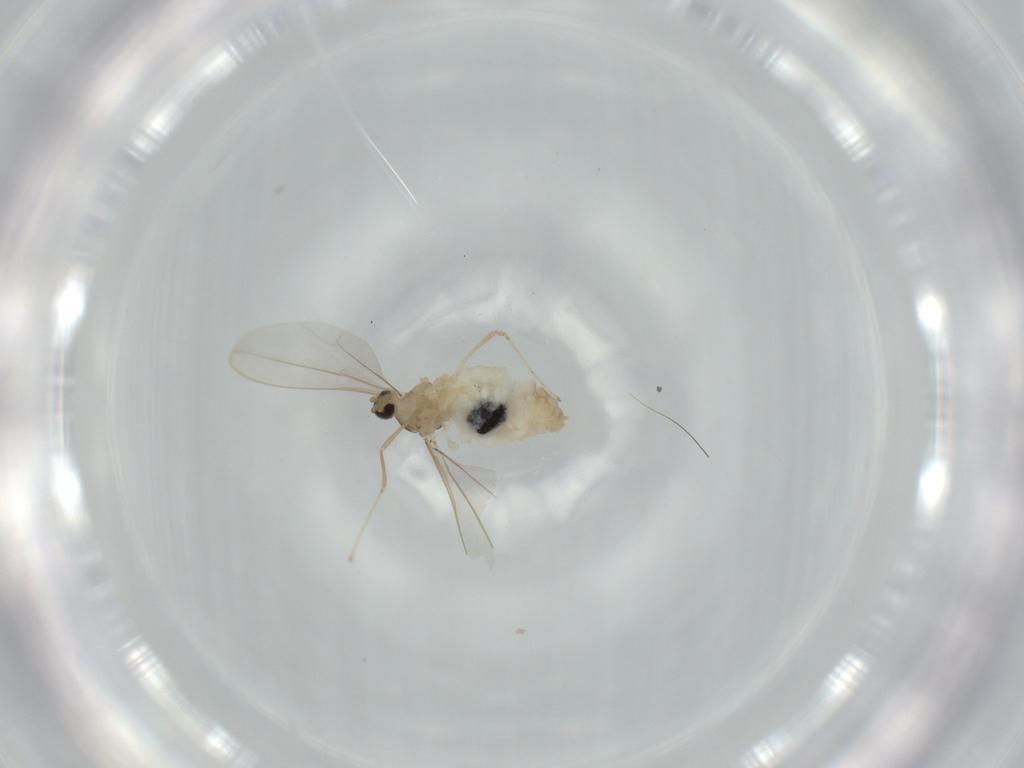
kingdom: Animalia
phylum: Arthropoda
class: Insecta
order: Diptera
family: Cecidomyiidae
